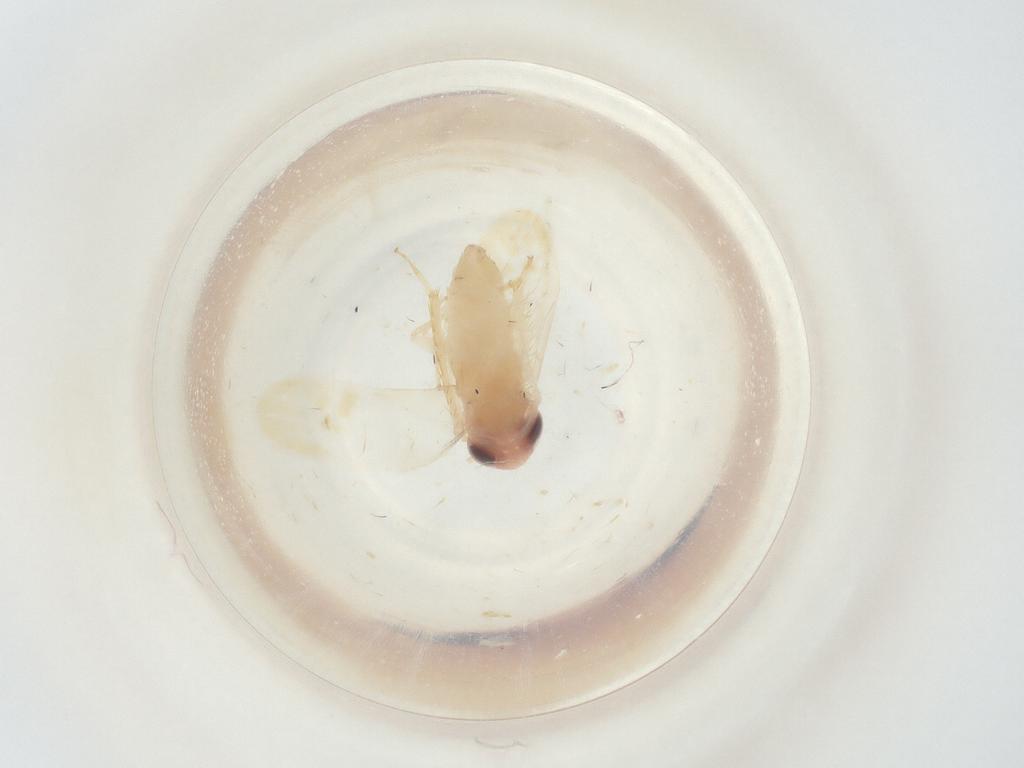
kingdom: Animalia
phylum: Arthropoda
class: Insecta
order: Hemiptera
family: Cicadellidae
